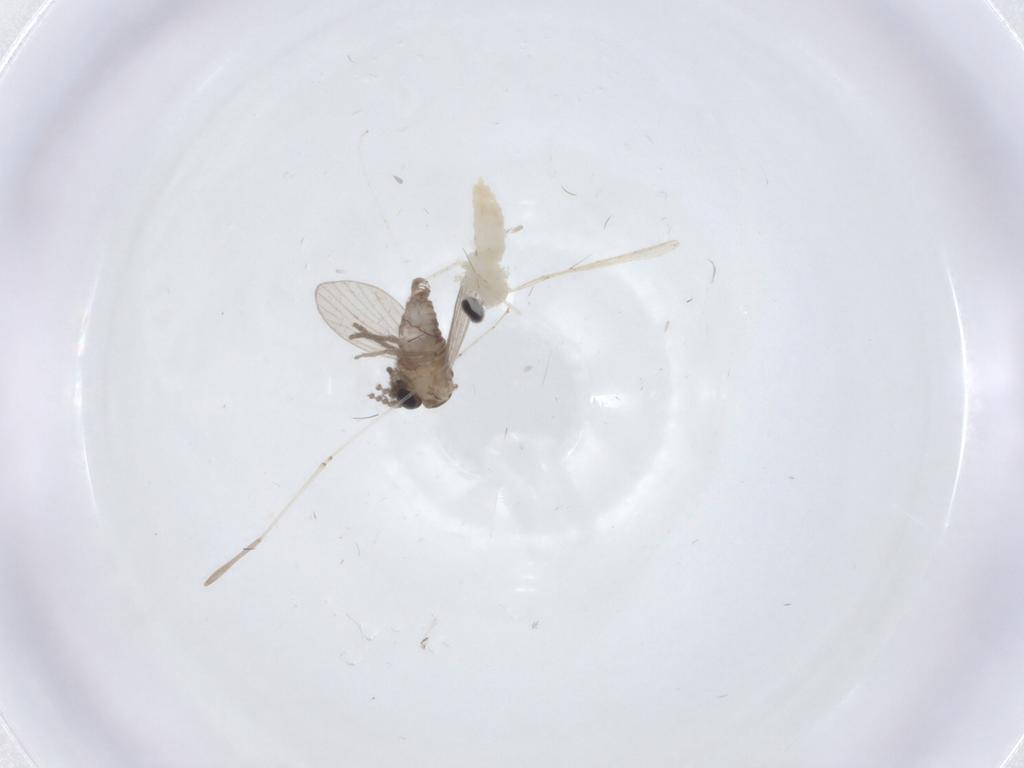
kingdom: Animalia
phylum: Arthropoda
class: Insecta
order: Diptera
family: Psychodidae
